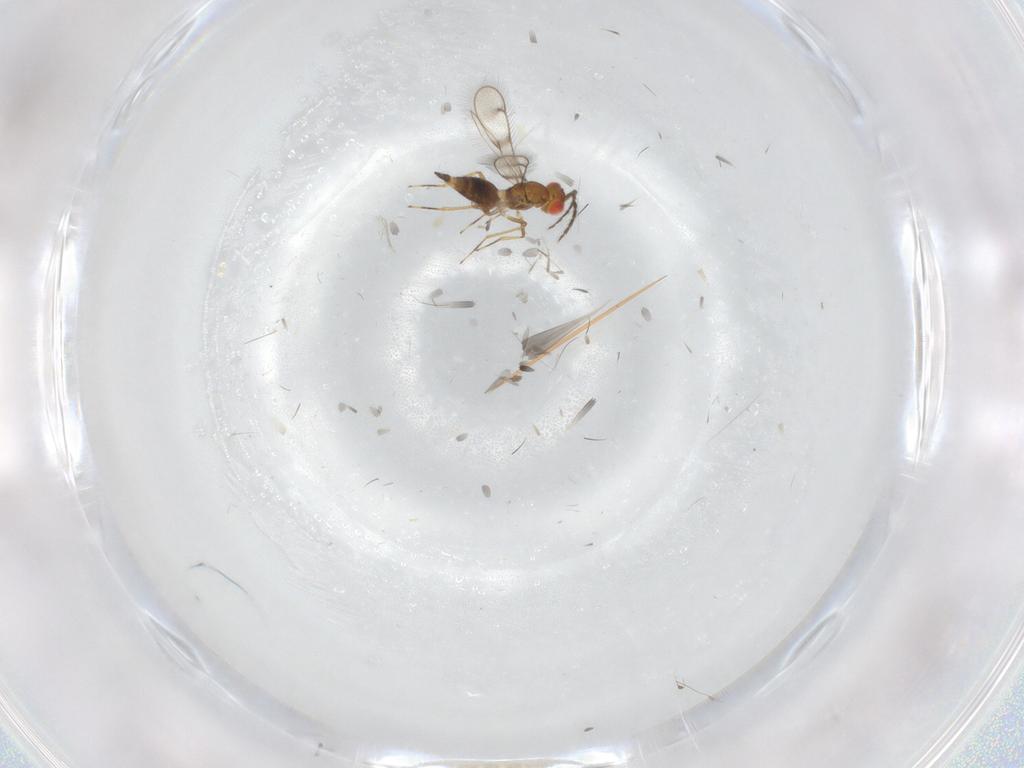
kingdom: Animalia
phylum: Arthropoda
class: Insecta
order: Hymenoptera
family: Eulophidae
